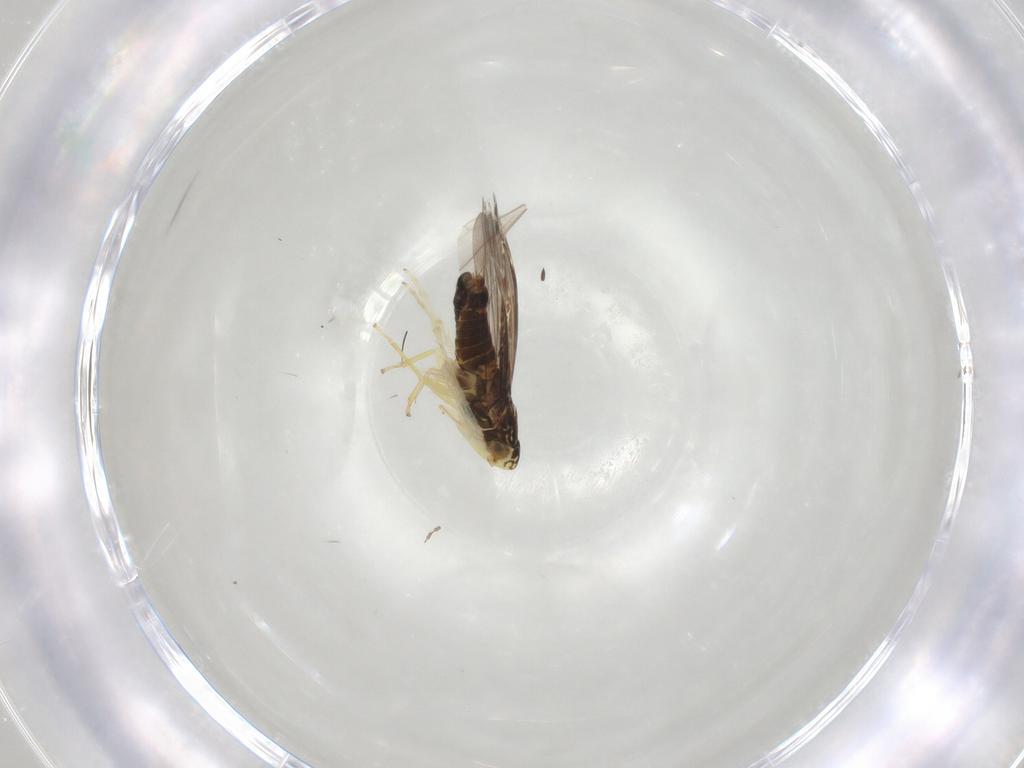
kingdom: Animalia
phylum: Arthropoda
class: Insecta
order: Hemiptera
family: Cicadellidae
